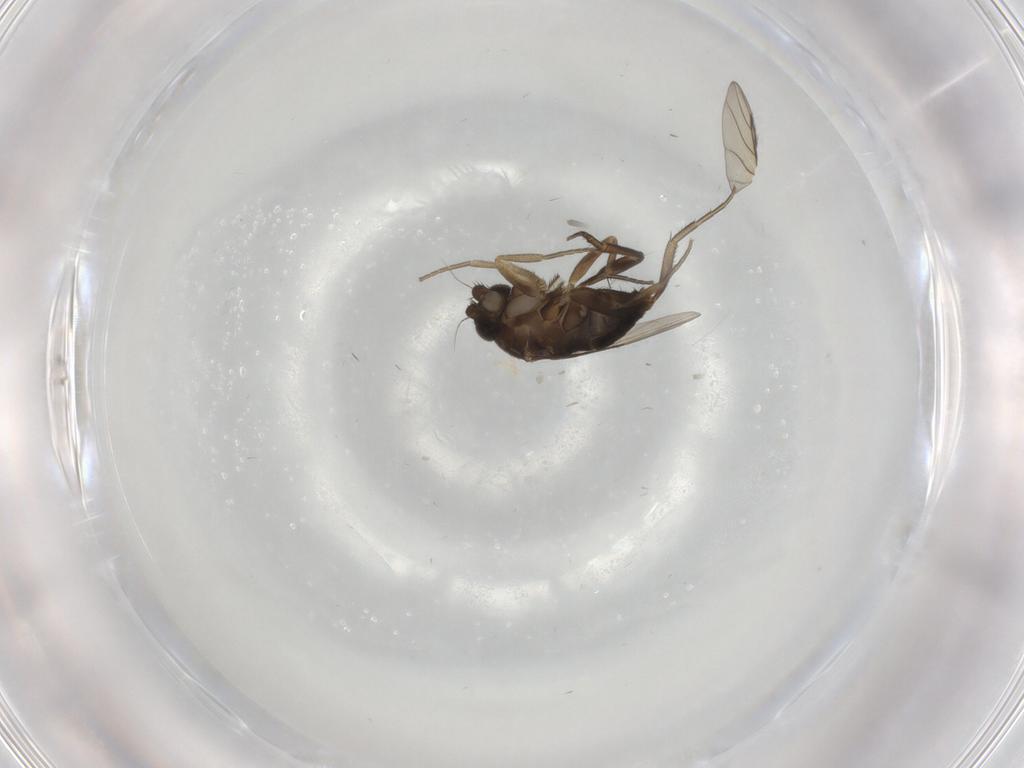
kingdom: Animalia
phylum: Arthropoda
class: Insecta
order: Diptera
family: Phoridae
